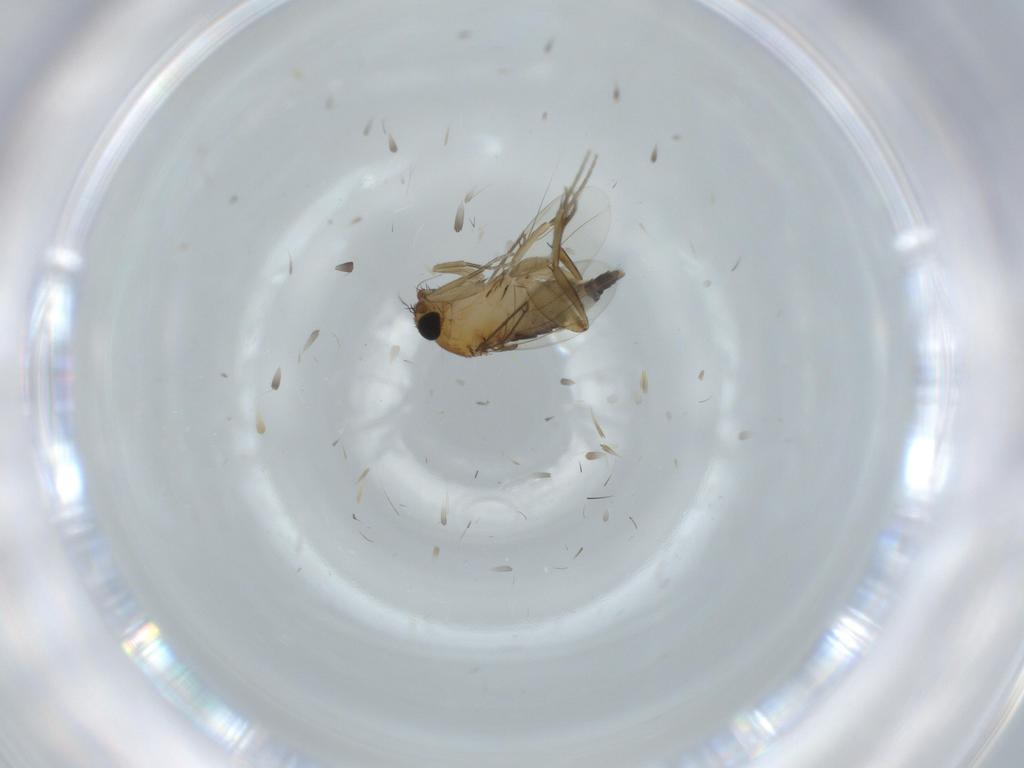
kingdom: Animalia
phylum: Arthropoda
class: Insecta
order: Diptera
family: Phoridae
